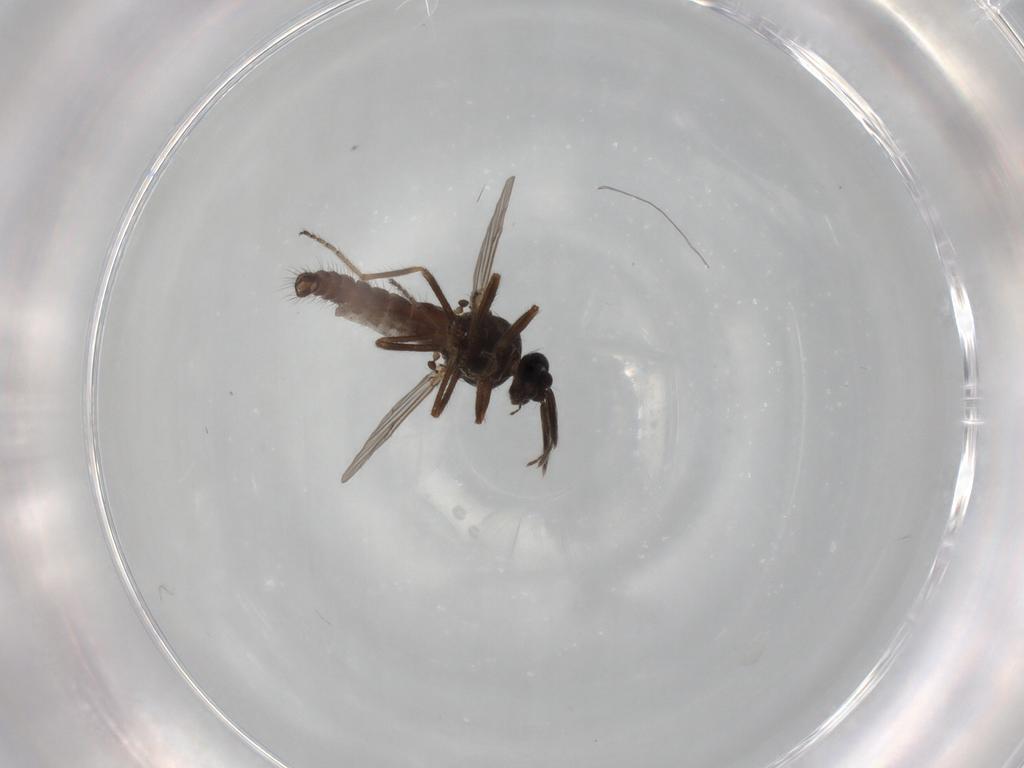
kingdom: Animalia
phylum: Arthropoda
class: Insecta
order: Diptera
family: Ceratopogonidae
